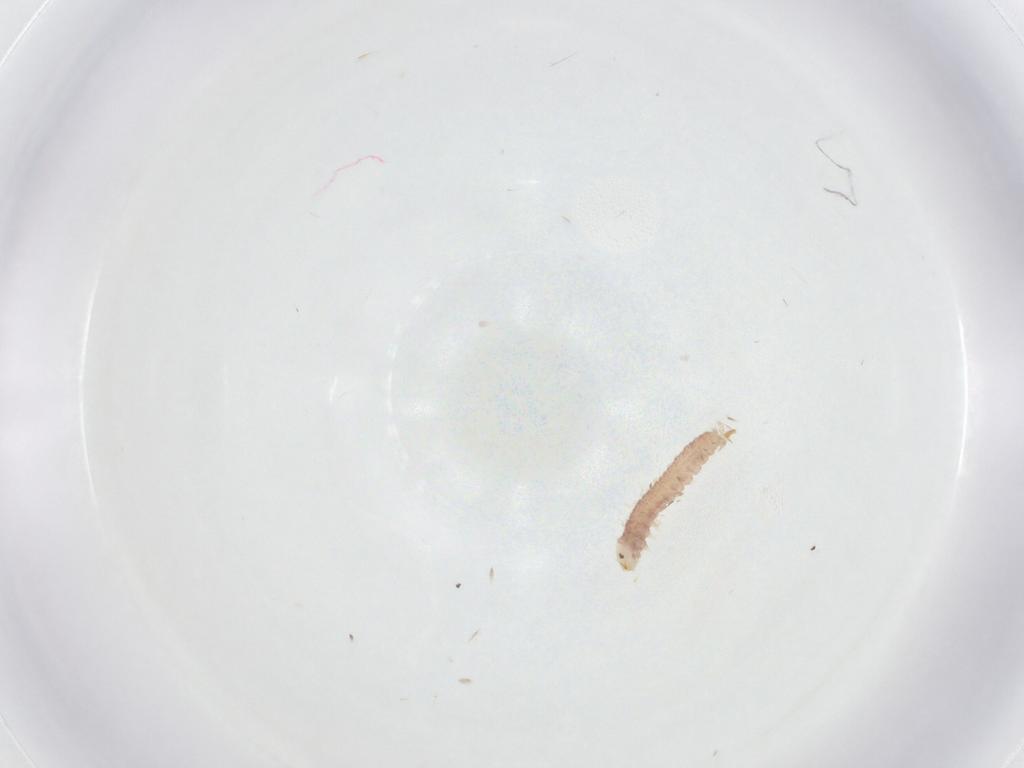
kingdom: Animalia
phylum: Arthropoda
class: Insecta
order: Lepidoptera
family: Blastobasidae
